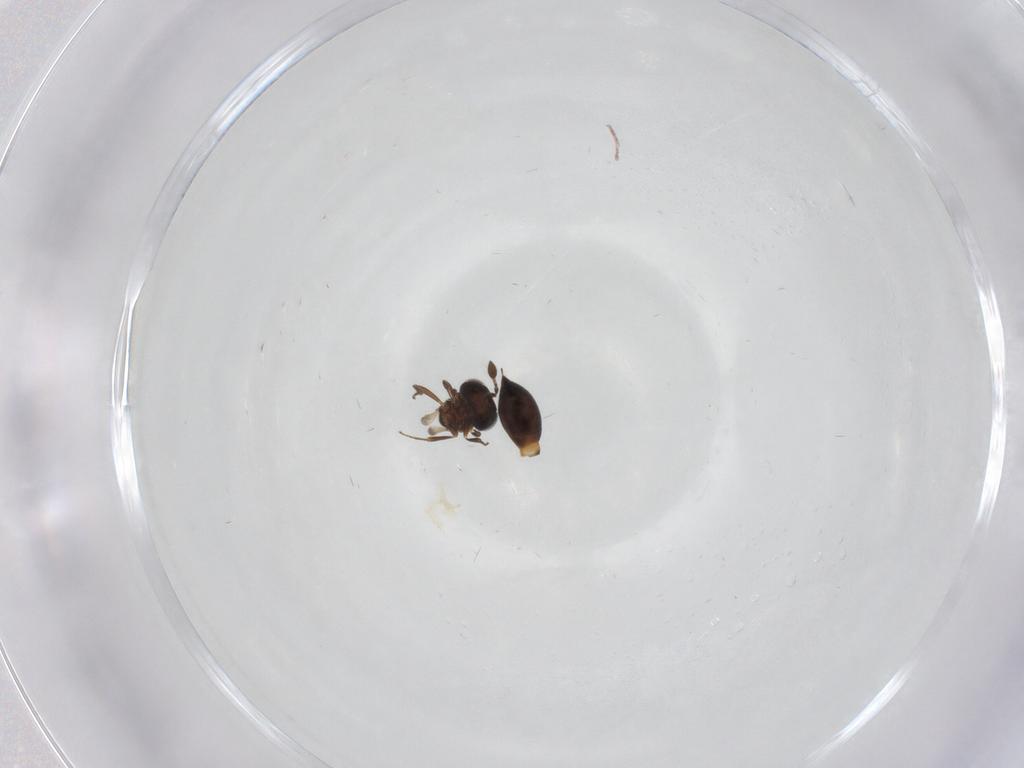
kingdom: Animalia
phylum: Arthropoda
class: Insecta
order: Hymenoptera
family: Scelionidae
